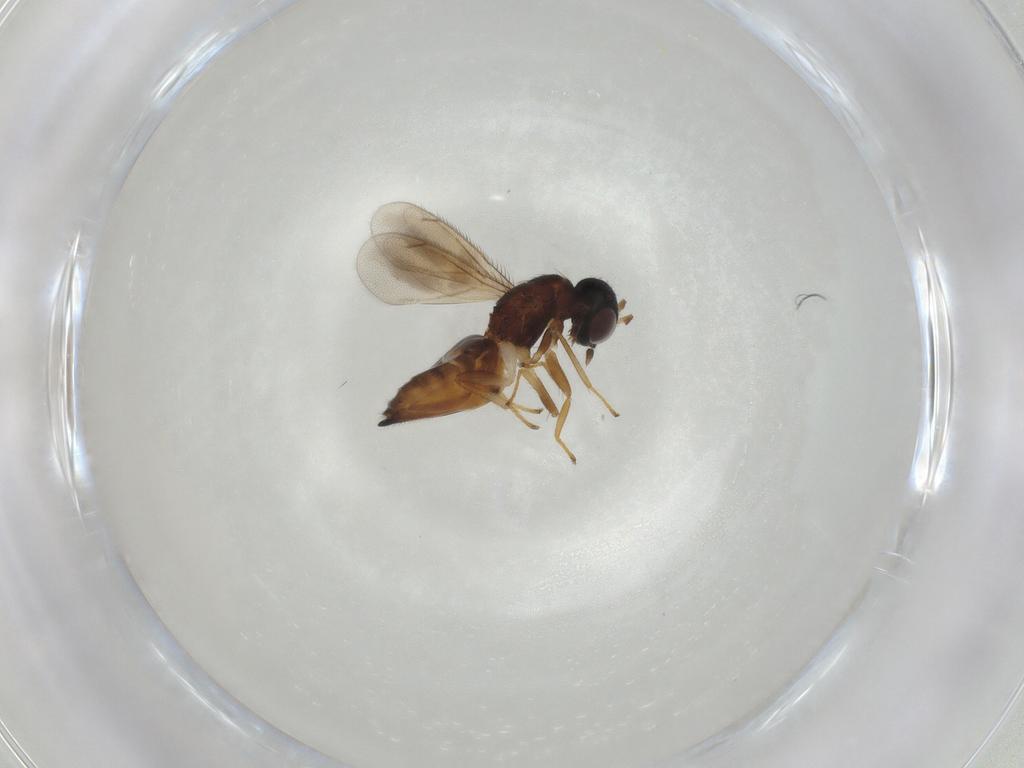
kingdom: Animalia
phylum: Arthropoda
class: Insecta
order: Hymenoptera
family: Eulophidae
